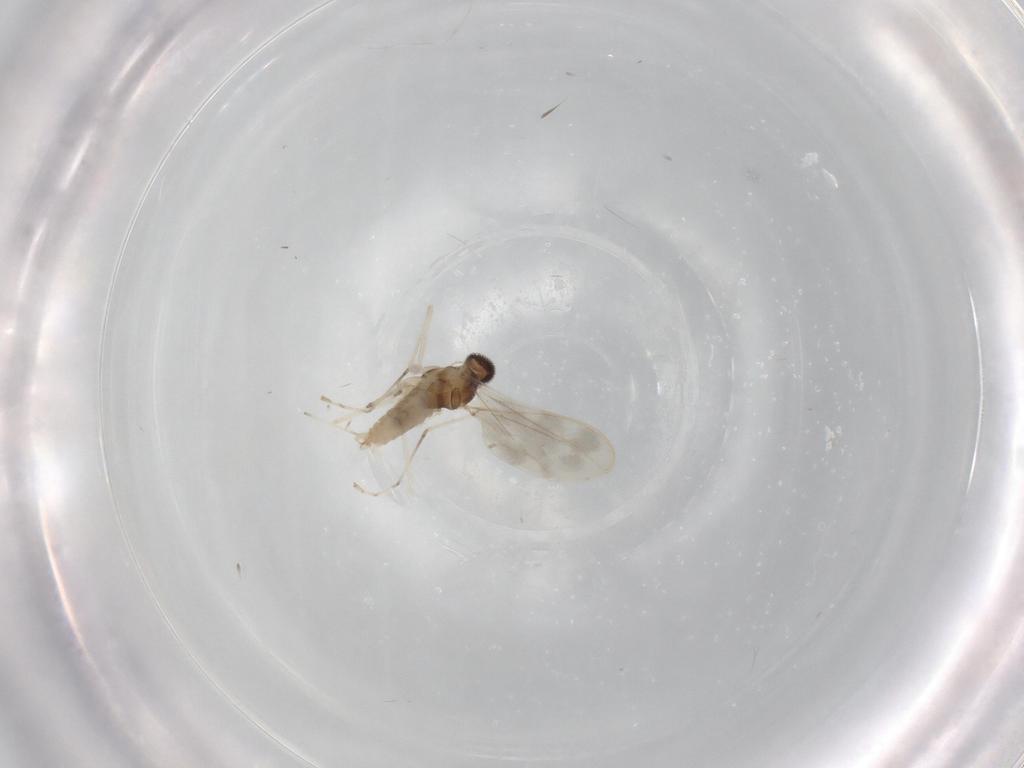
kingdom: Animalia
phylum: Arthropoda
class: Insecta
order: Diptera
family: Cecidomyiidae
